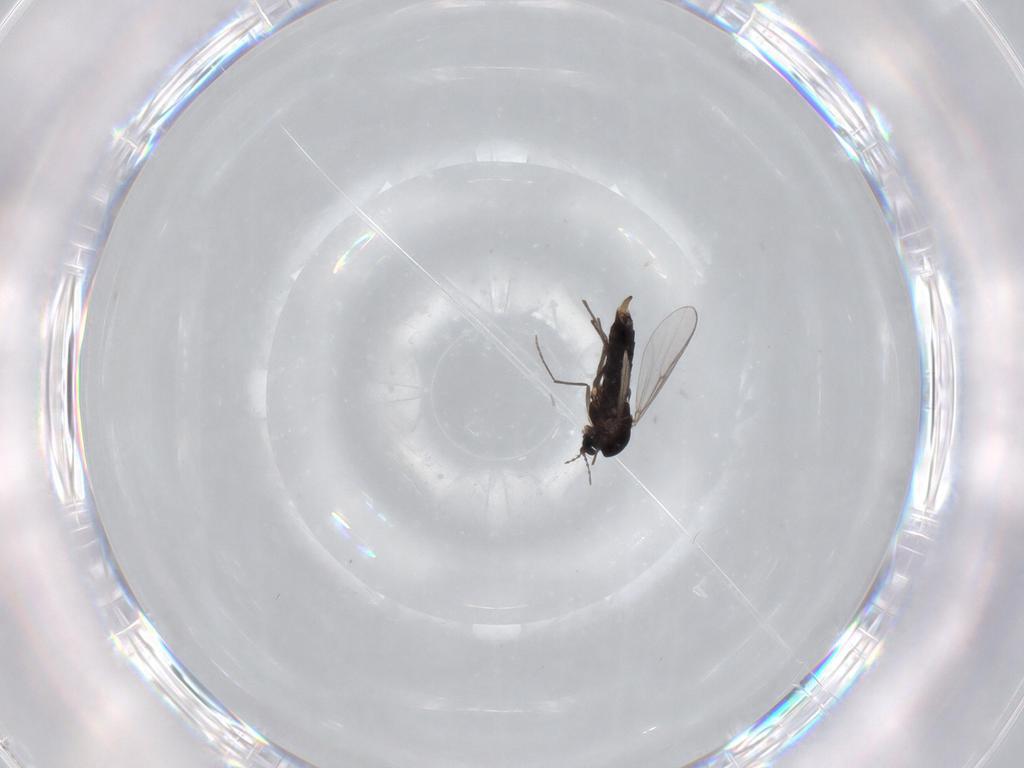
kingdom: Animalia
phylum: Arthropoda
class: Insecta
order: Diptera
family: Chironomidae
